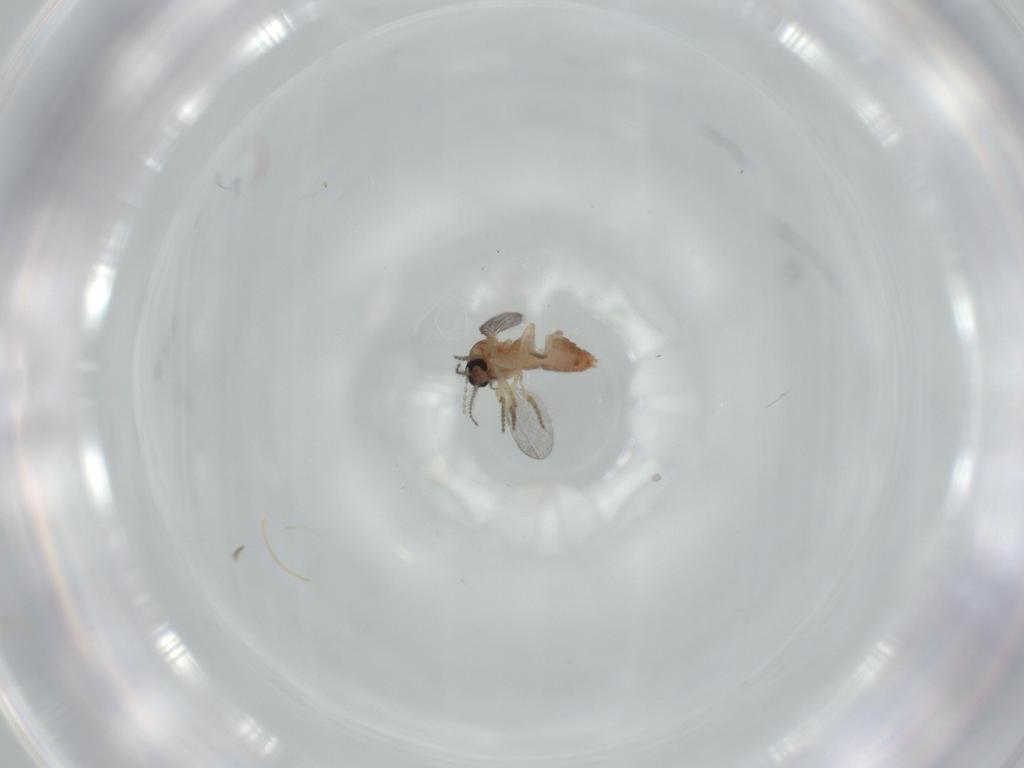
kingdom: Animalia
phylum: Arthropoda
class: Insecta
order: Diptera
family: Ceratopogonidae
